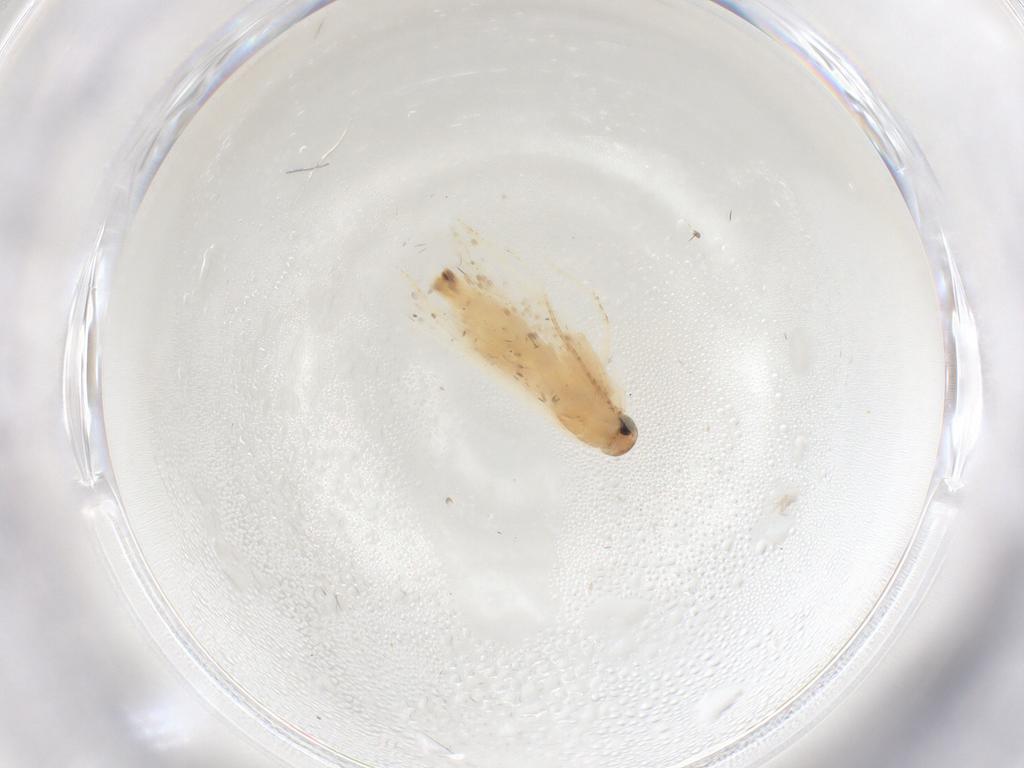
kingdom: Animalia
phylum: Arthropoda
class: Insecta
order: Lepidoptera
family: Gelechiidae
